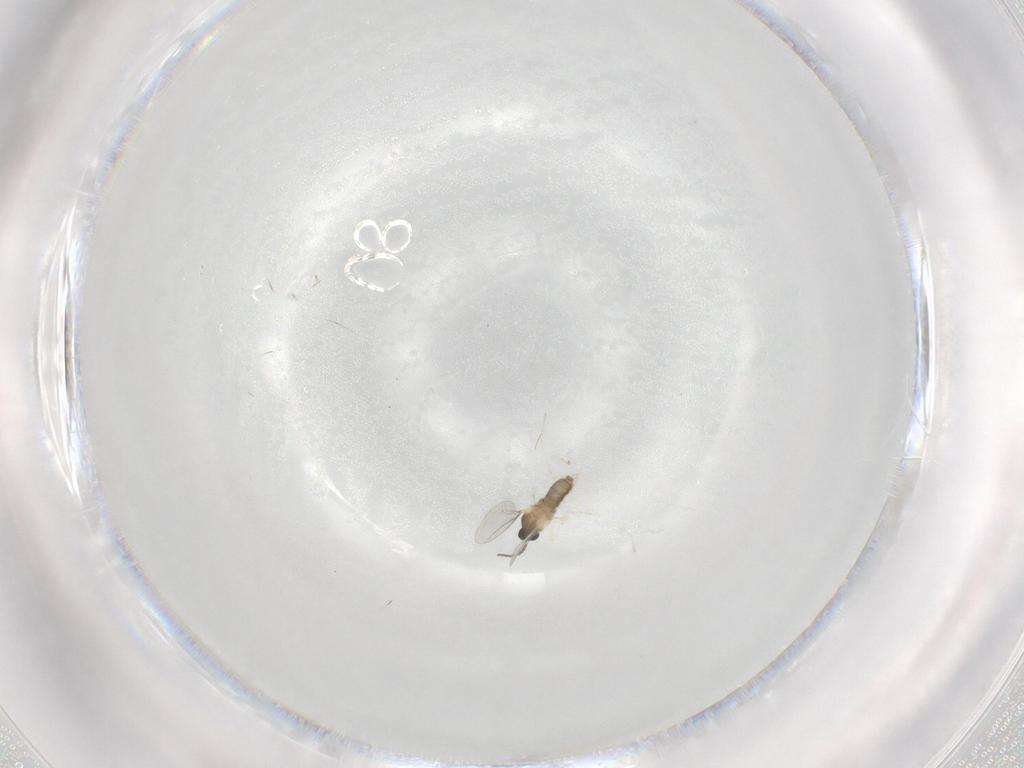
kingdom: Animalia
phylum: Arthropoda
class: Insecta
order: Diptera
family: Cecidomyiidae
